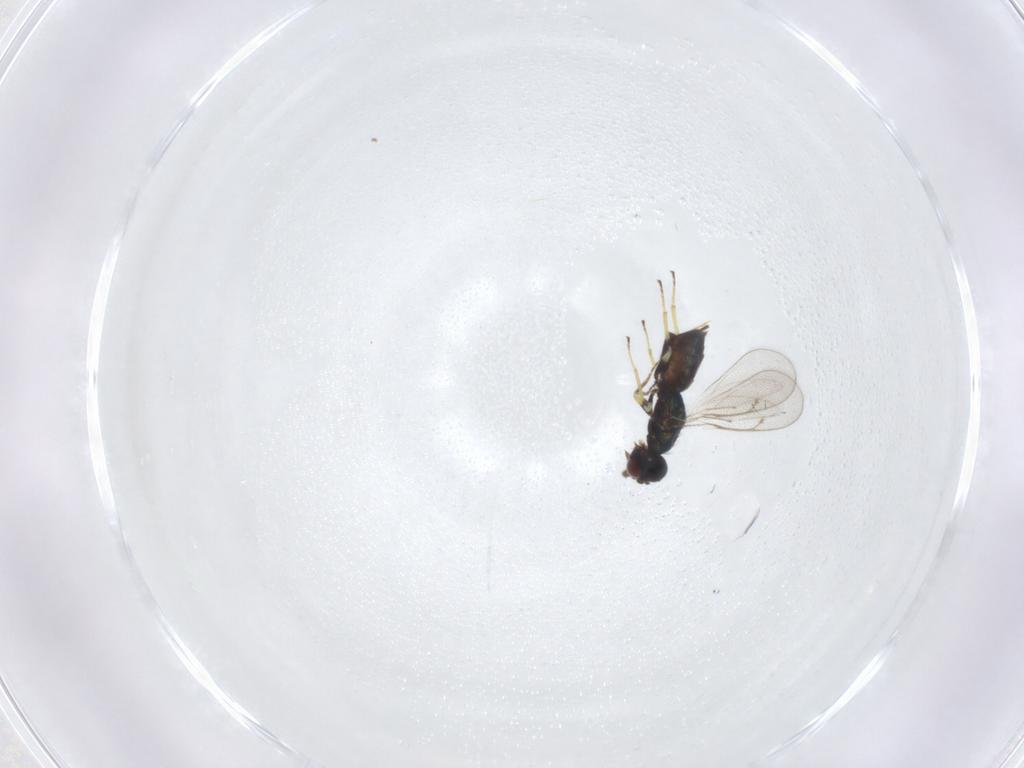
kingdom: Animalia
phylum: Arthropoda
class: Insecta
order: Hymenoptera
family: Eulophidae
